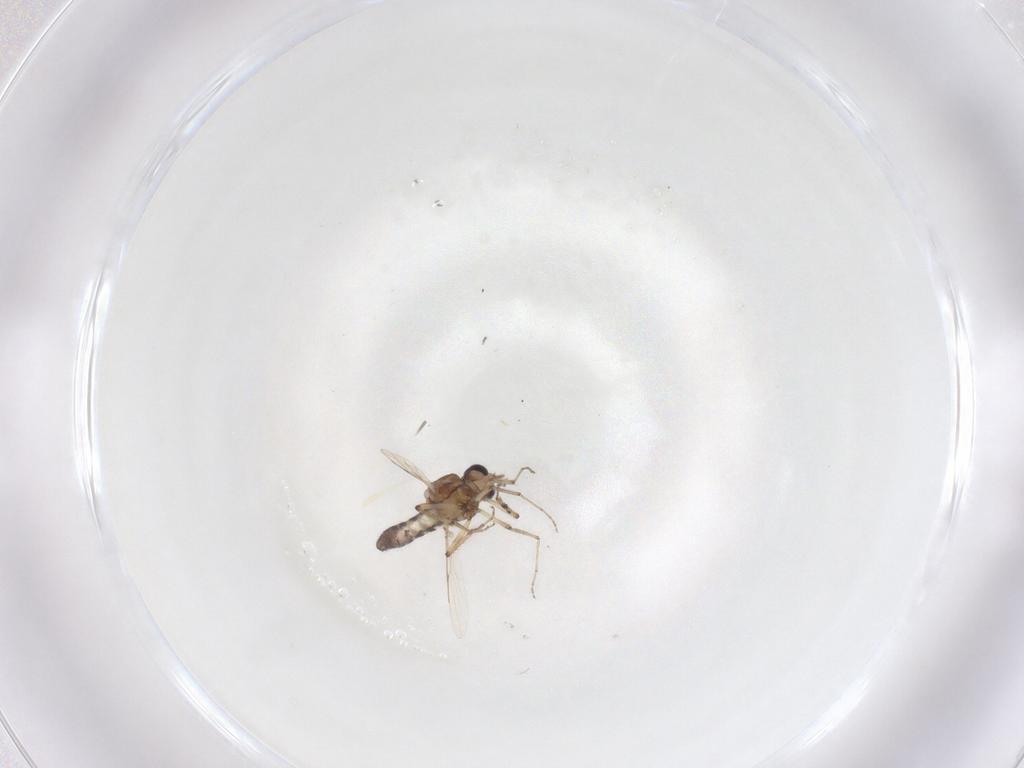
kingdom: Animalia
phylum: Arthropoda
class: Insecta
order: Diptera
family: Ceratopogonidae
